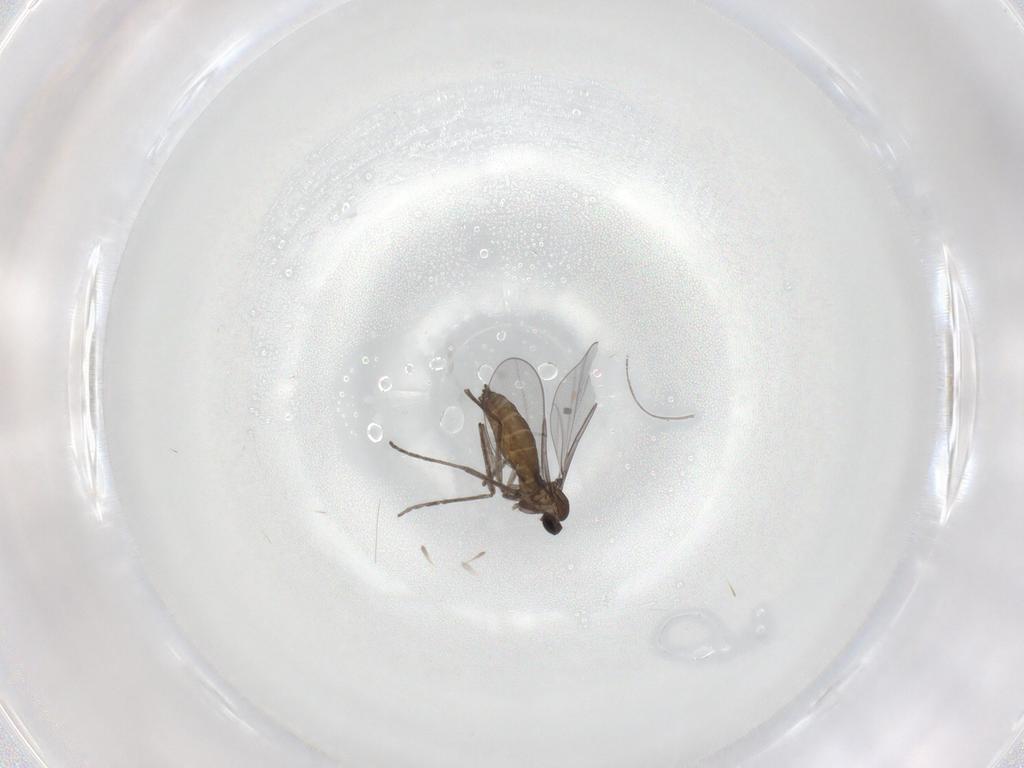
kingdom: Animalia
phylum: Arthropoda
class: Insecta
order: Diptera
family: Cecidomyiidae
